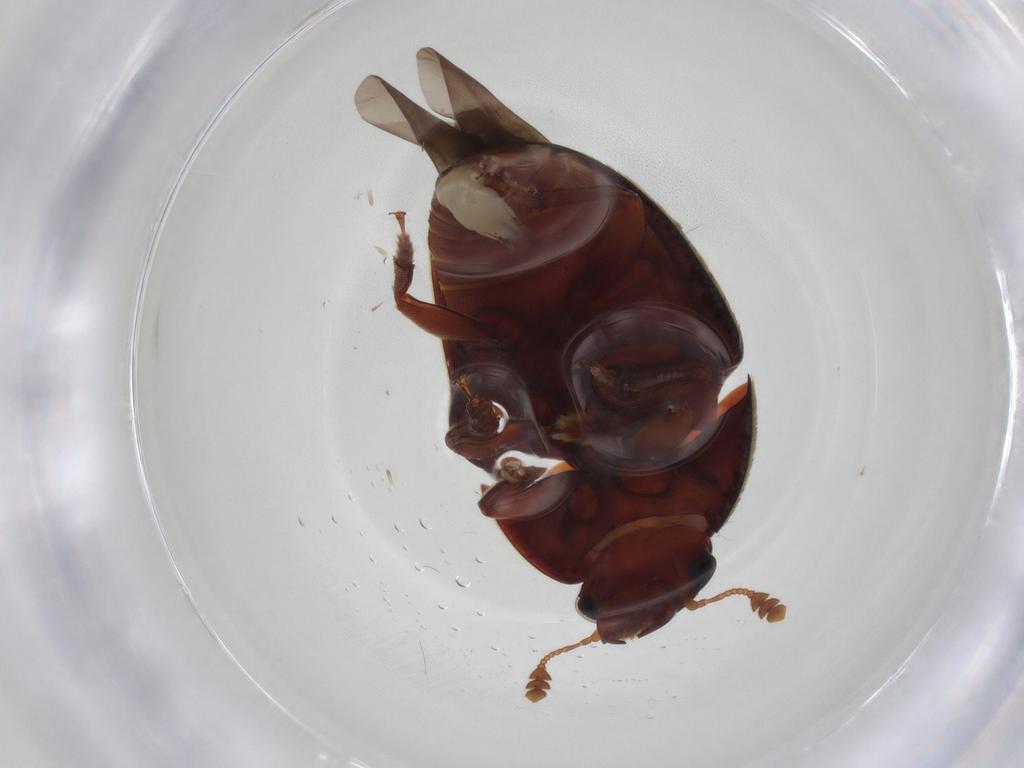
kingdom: Animalia
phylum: Arthropoda
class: Insecta
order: Coleoptera
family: Nitidulidae
